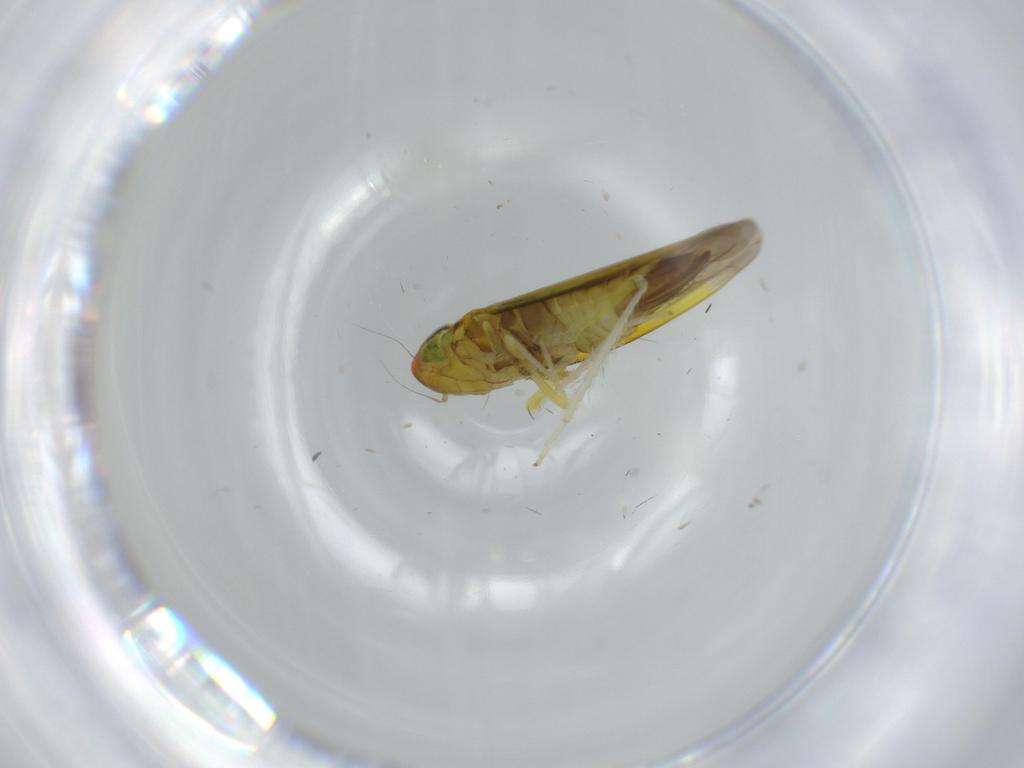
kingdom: Animalia
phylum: Arthropoda
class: Insecta
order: Hemiptera
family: Cicadellidae
